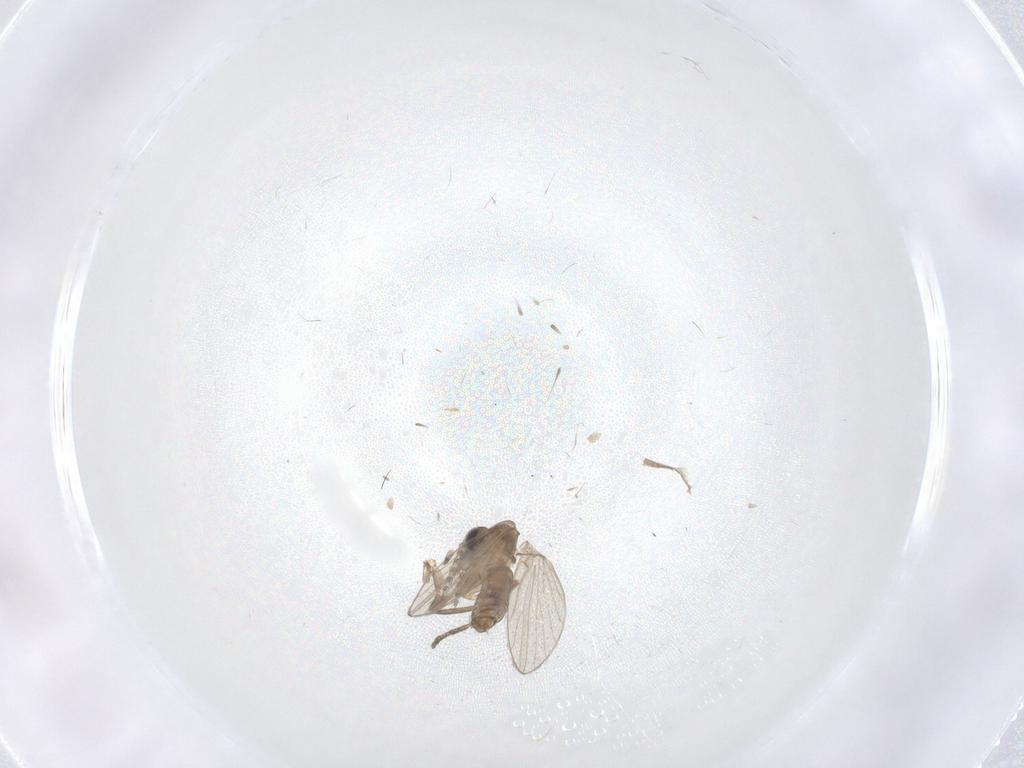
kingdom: Animalia
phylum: Arthropoda
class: Insecta
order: Diptera
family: Psychodidae
